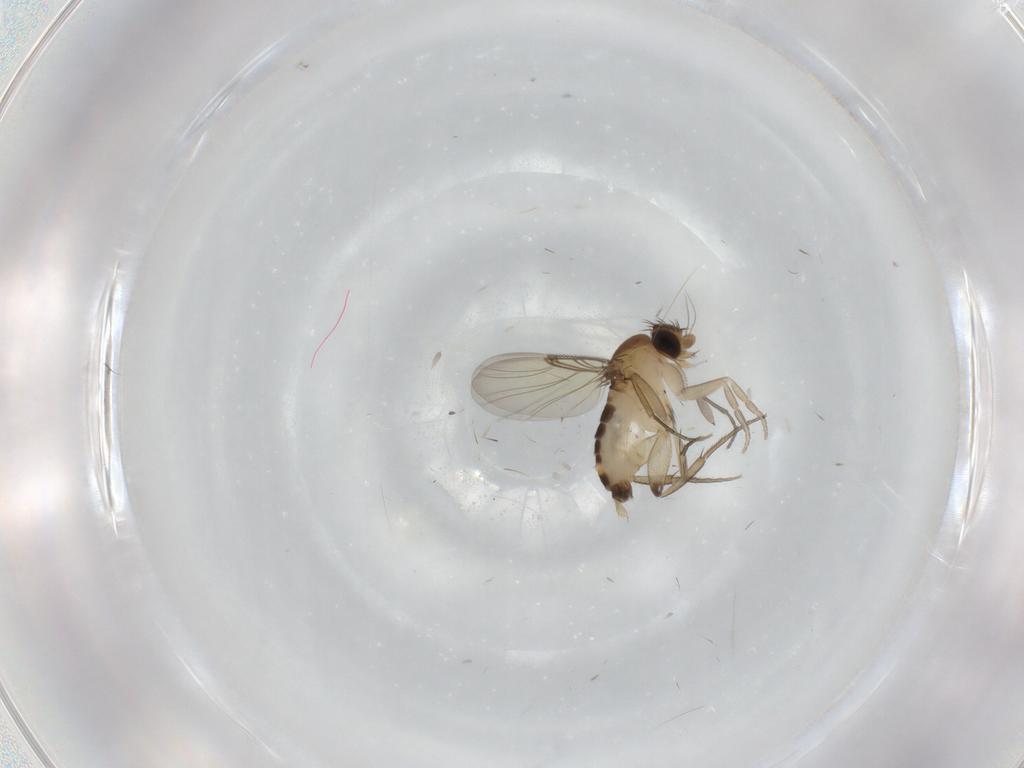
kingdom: Animalia
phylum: Arthropoda
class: Insecta
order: Diptera
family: Sciaridae
